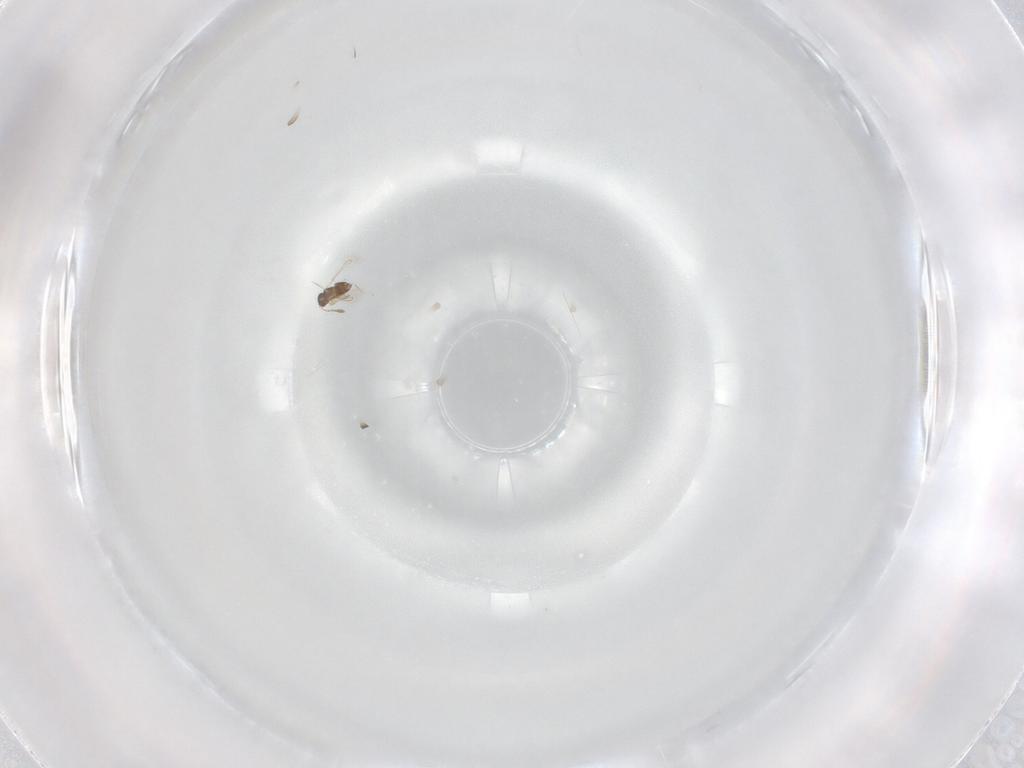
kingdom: Animalia
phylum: Arthropoda
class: Insecta
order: Hymenoptera
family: Mymaridae
